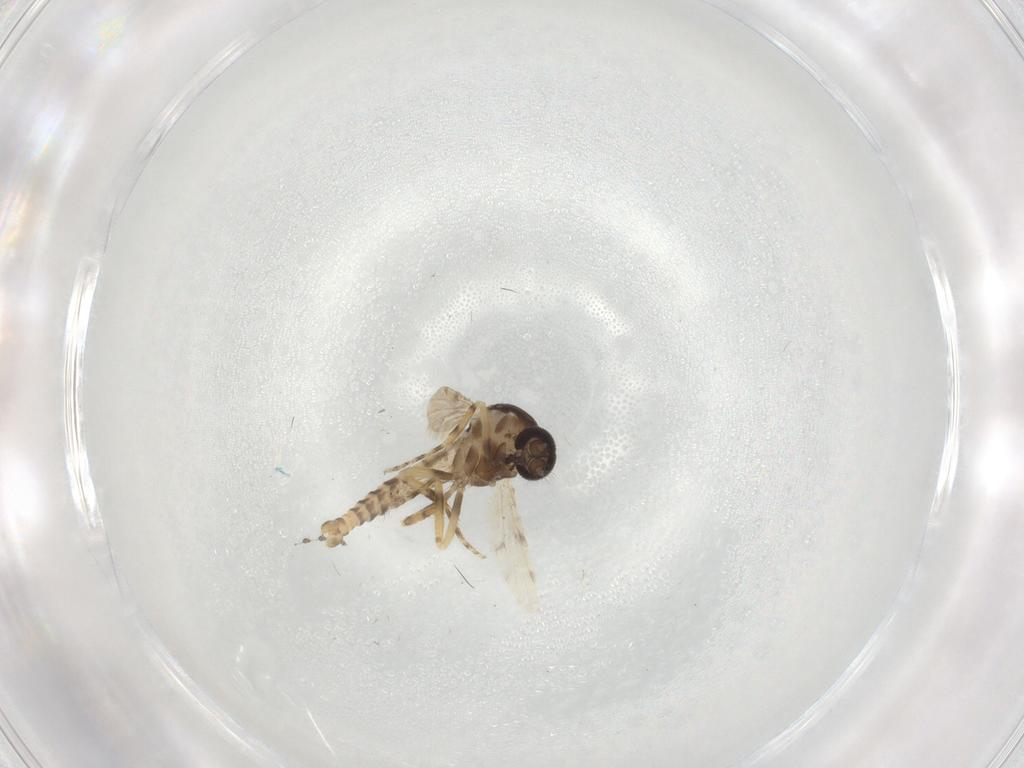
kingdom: Animalia
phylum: Arthropoda
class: Insecta
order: Diptera
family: Ceratopogonidae
